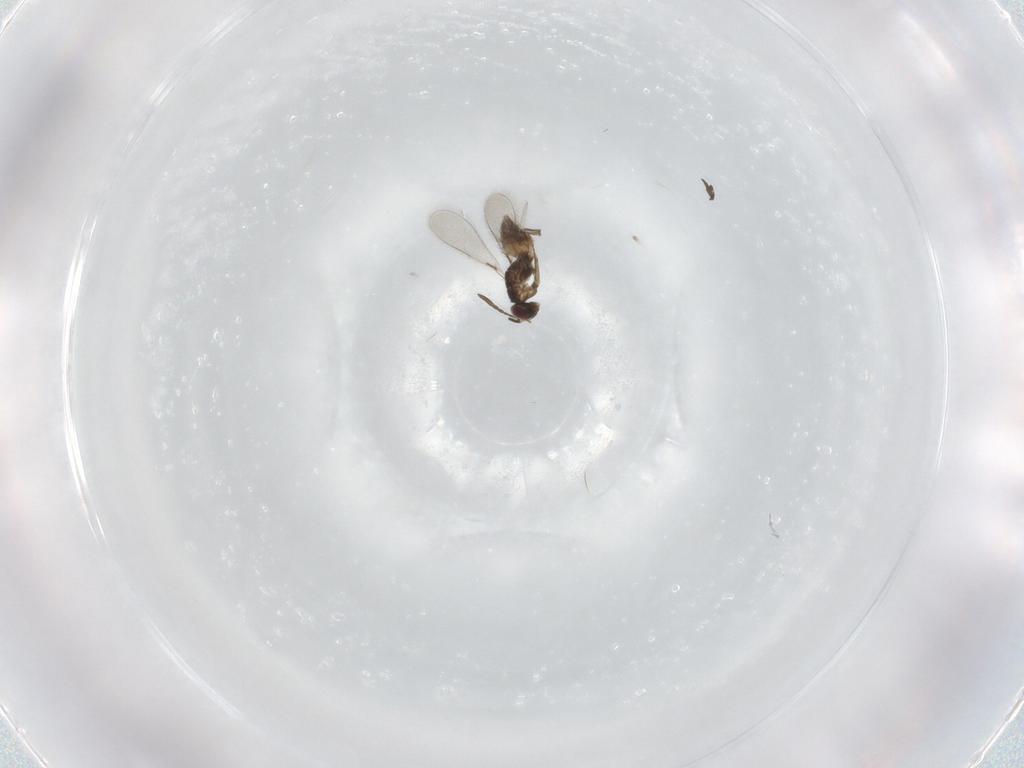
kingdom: Animalia
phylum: Arthropoda
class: Insecta
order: Hymenoptera
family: Mymaridae
